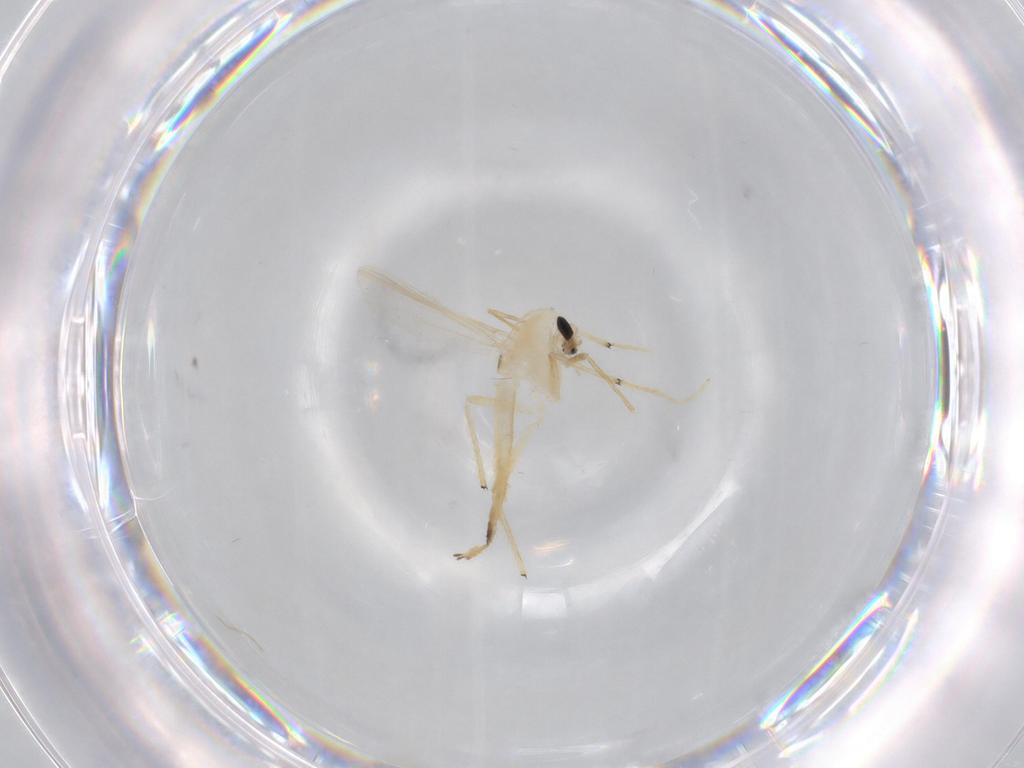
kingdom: Animalia
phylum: Arthropoda
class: Insecta
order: Diptera
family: Chironomidae
